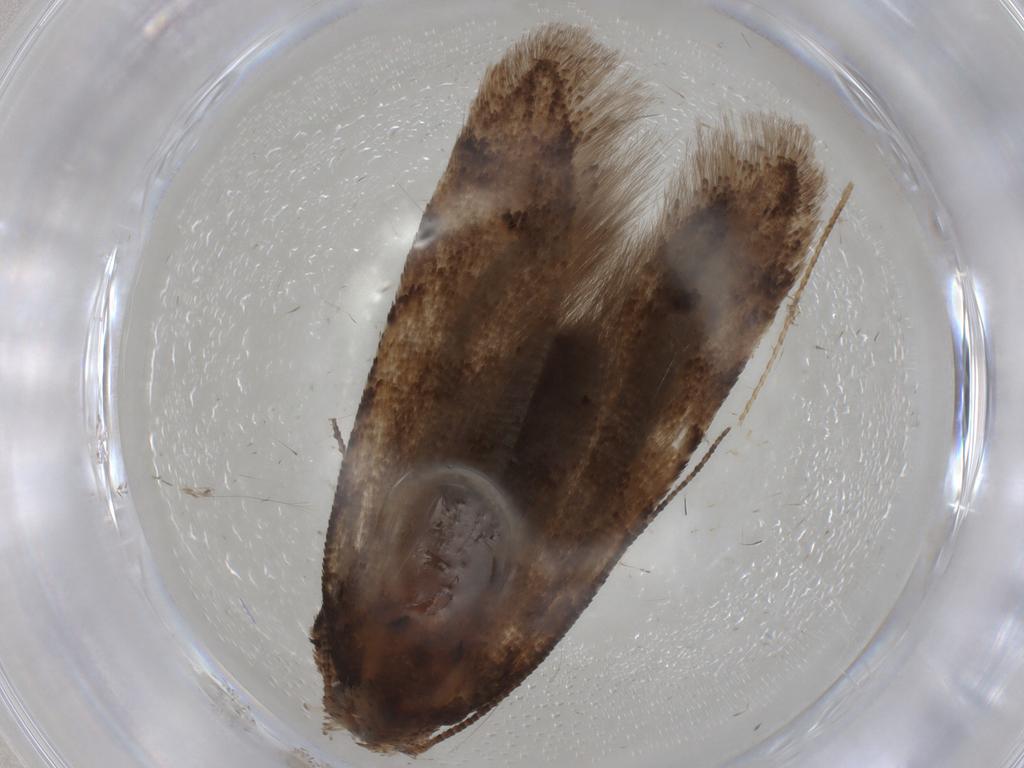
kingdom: Animalia
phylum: Arthropoda
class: Insecta
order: Lepidoptera
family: Gelechiidae
